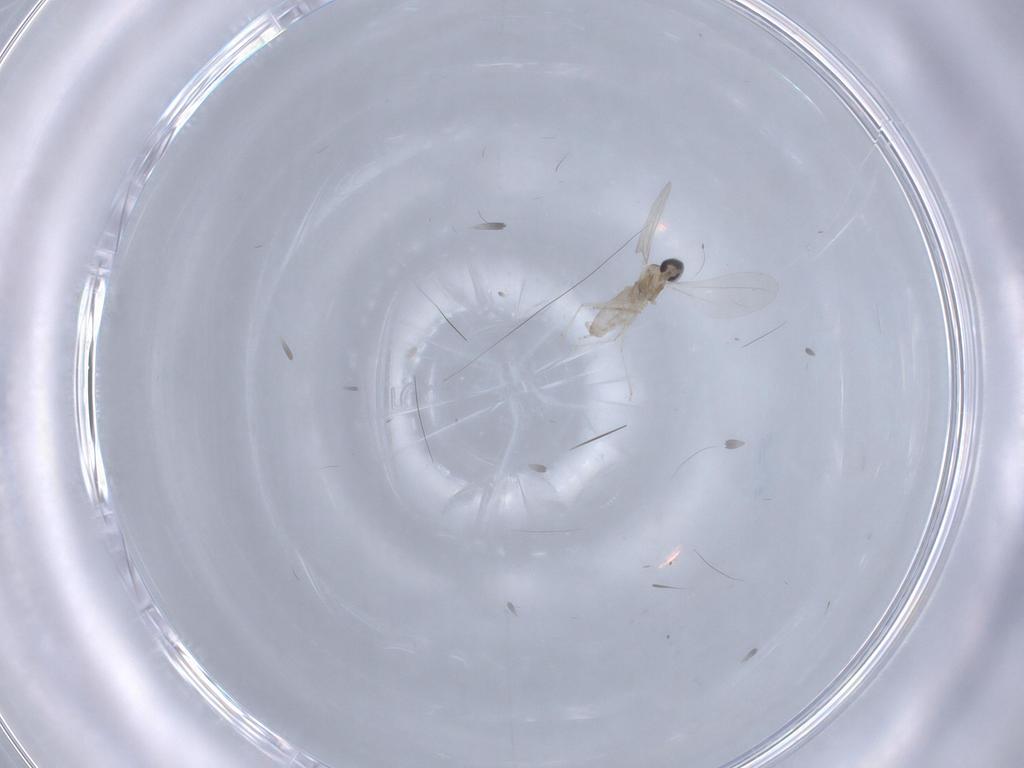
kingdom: Animalia
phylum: Arthropoda
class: Insecta
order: Diptera
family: Cecidomyiidae
